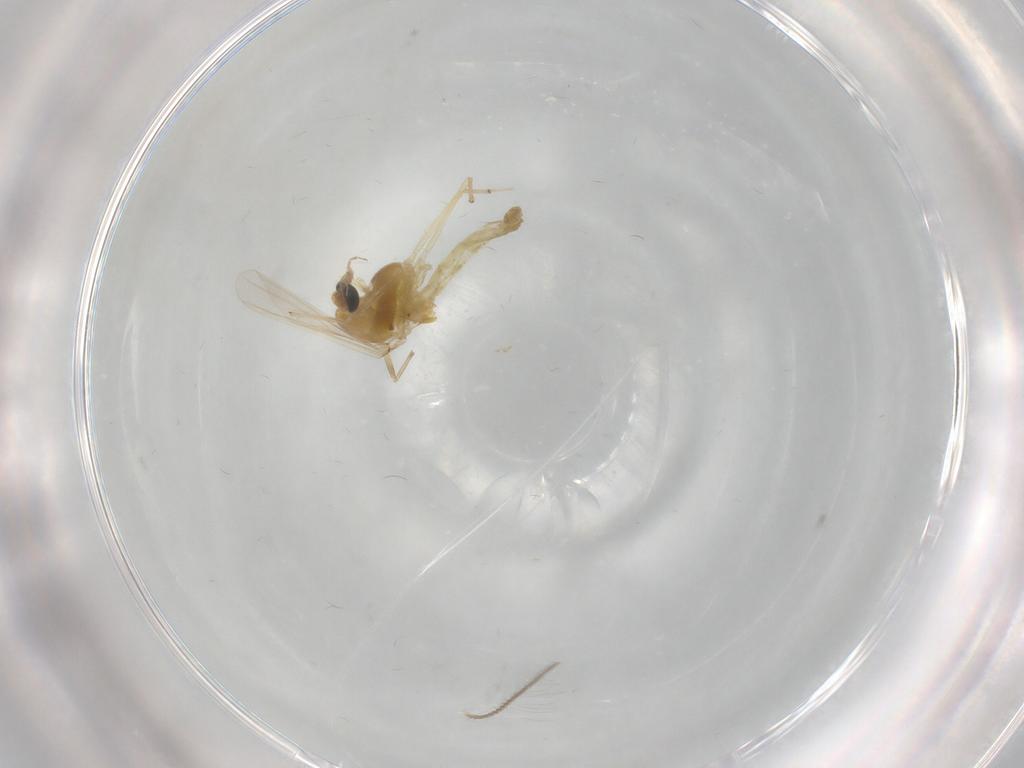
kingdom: Animalia
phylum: Arthropoda
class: Insecta
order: Diptera
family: Chironomidae
